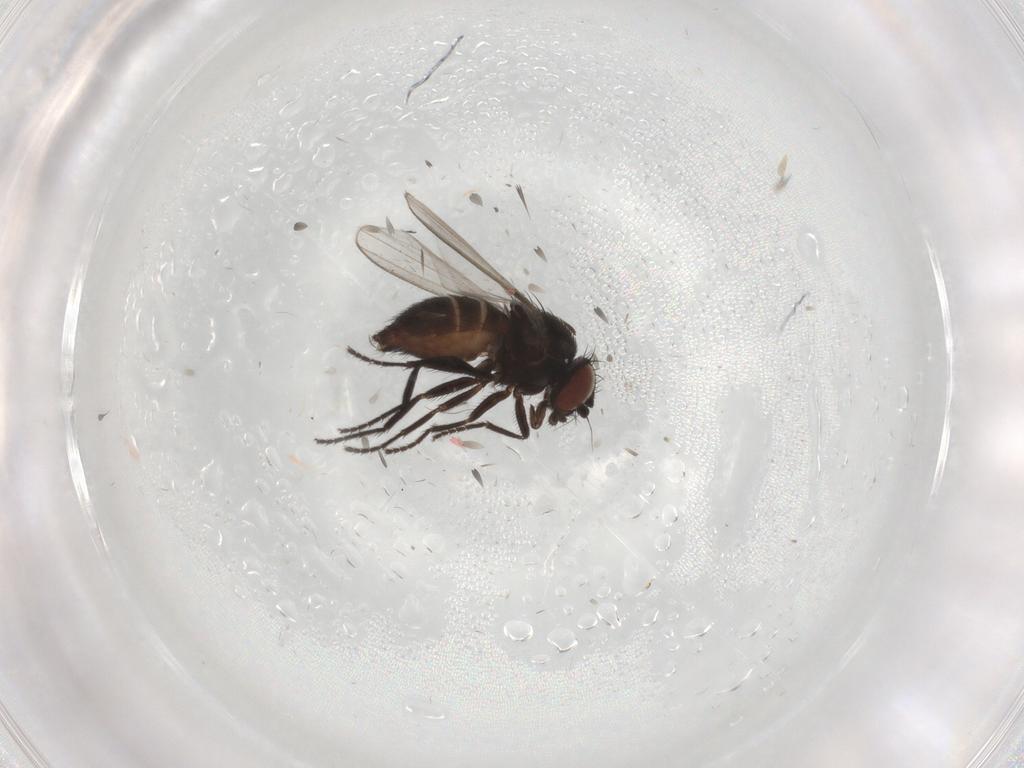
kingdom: Animalia
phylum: Arthropoda
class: Insecta
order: Diptera
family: Milichiidae
